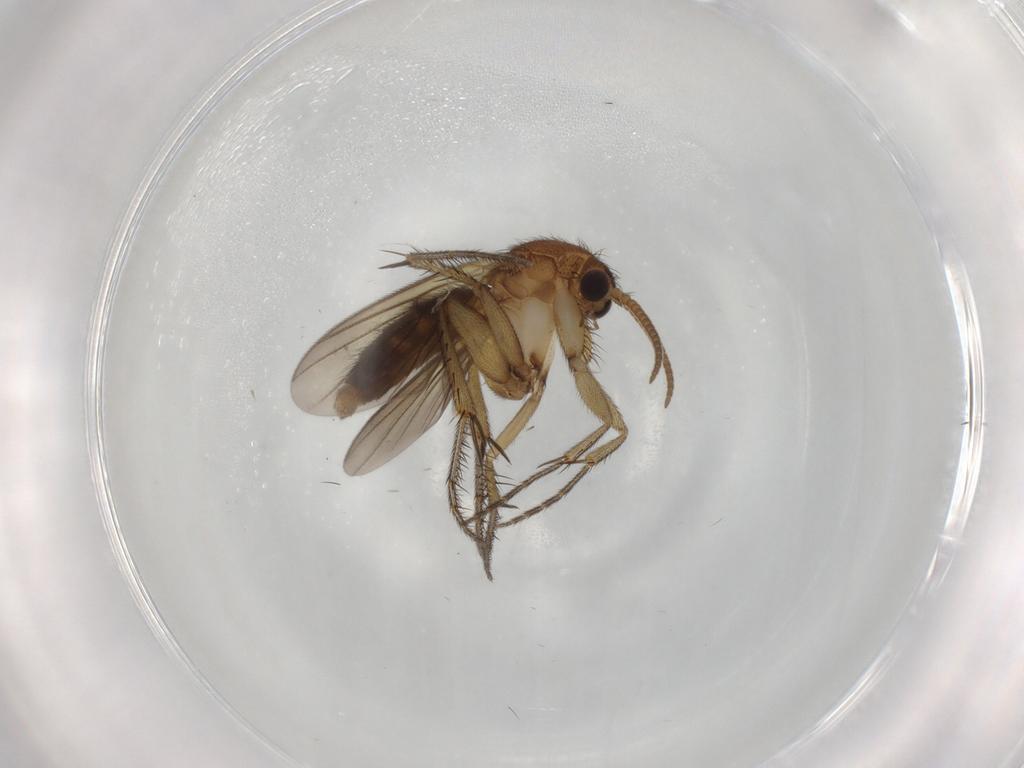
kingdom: Animalia
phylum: Arthropoda
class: Insecta
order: Diptera
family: Mycetophilidae
